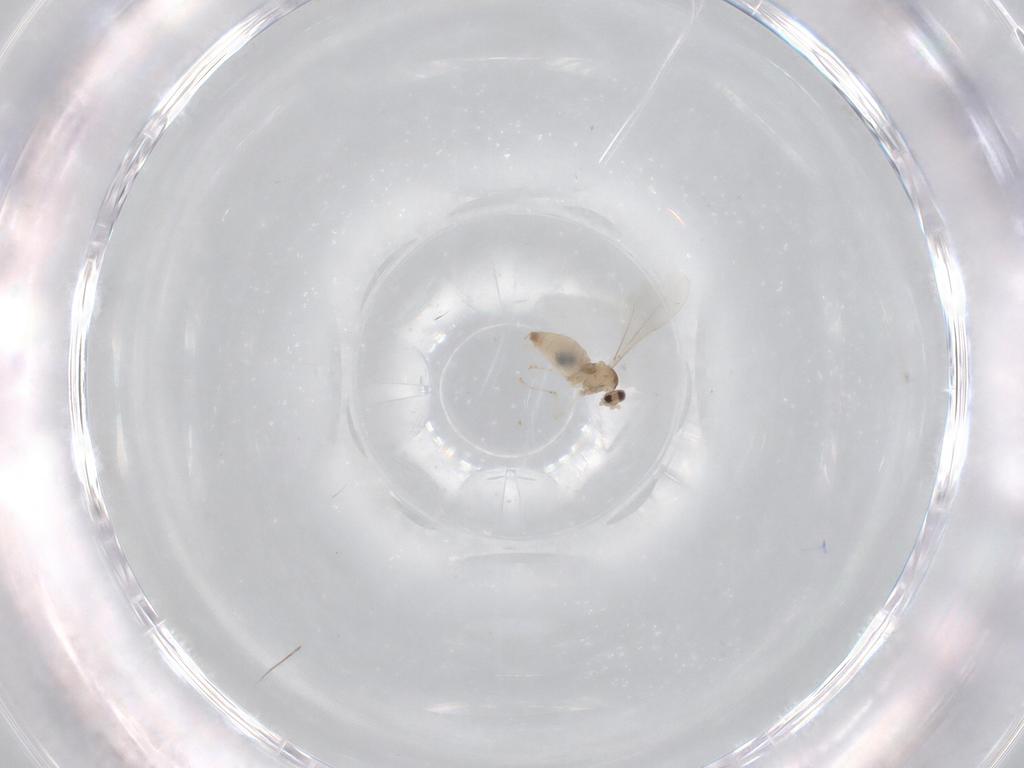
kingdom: Animalia
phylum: Arthropoda
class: Insecta
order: Diptera
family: Cecidomyiidae
